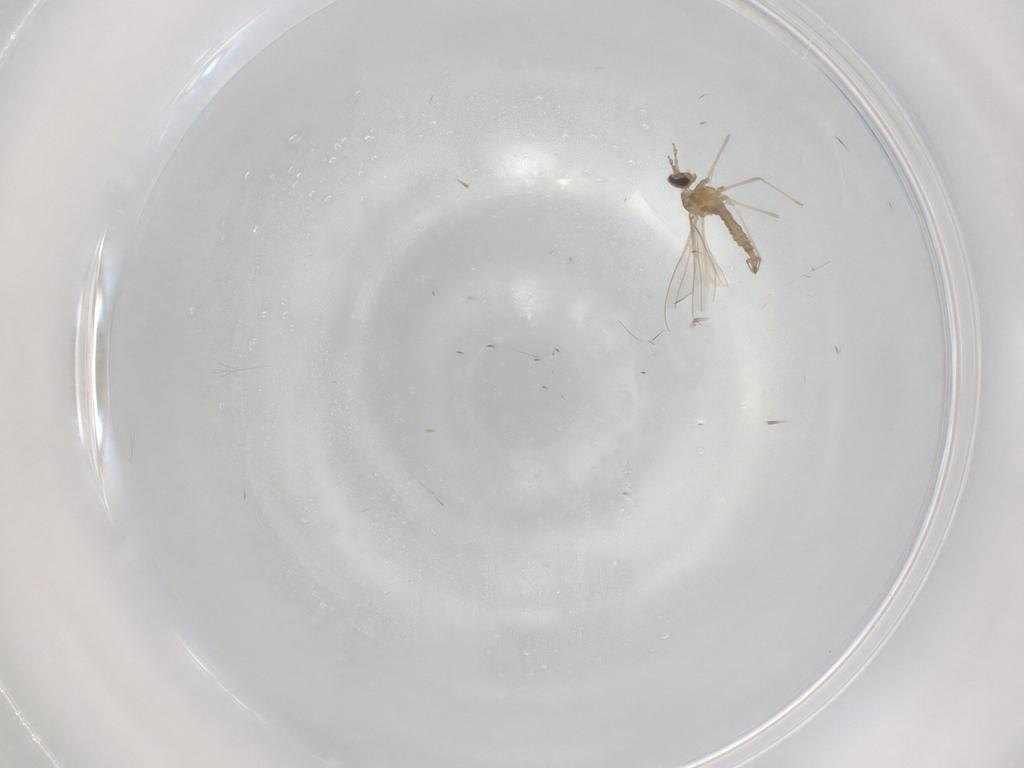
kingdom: Animalia
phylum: Arthropoda
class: Insecta
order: Diptera
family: Cecidomyiidae
